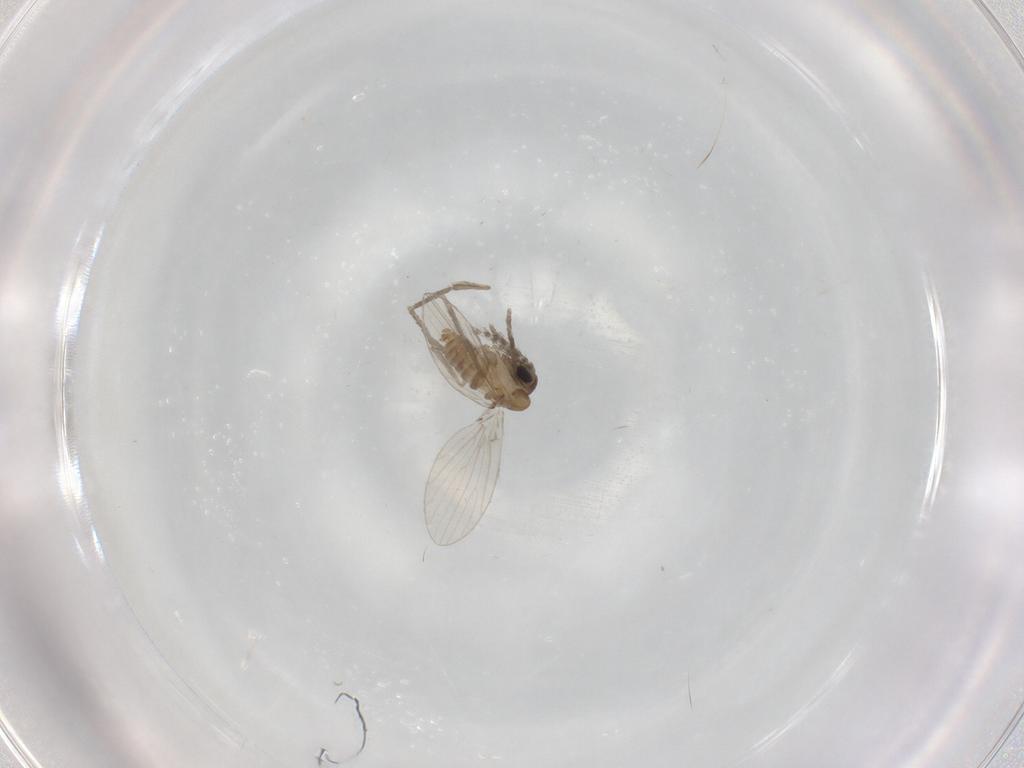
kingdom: Animalia
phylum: Arthropoda
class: Insecta
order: Diptera
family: Psychodidae
